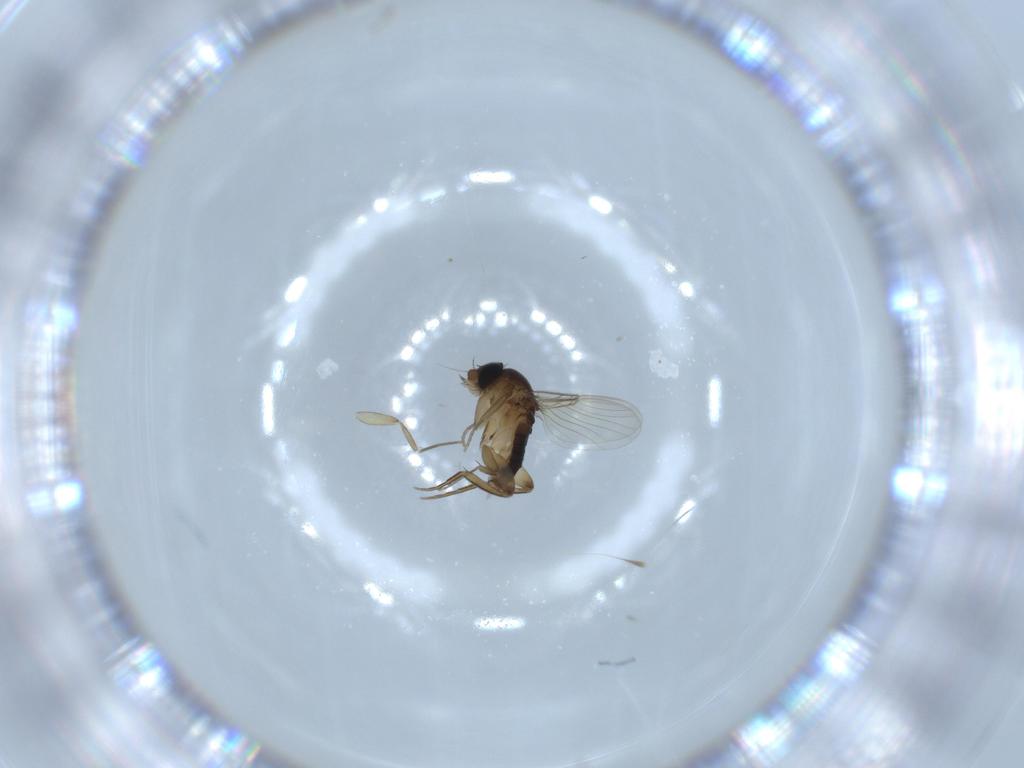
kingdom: Animalia
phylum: Arthropoda
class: Insecta
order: Diptera
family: Phoridae
